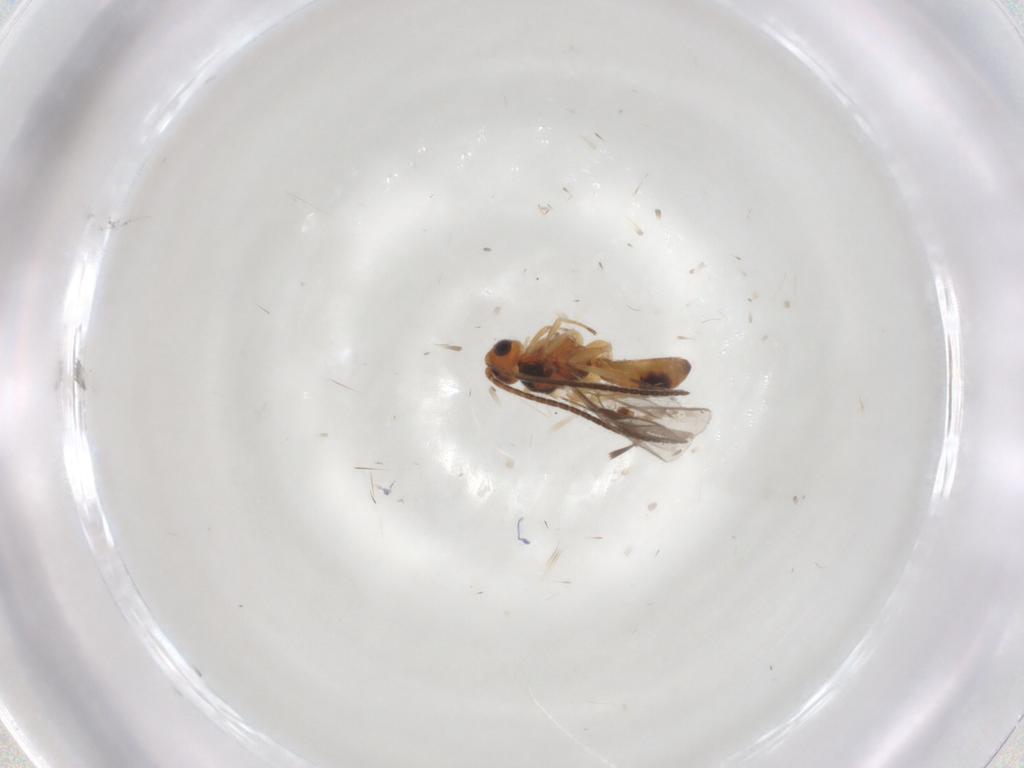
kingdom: Animalia
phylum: Arthropoda
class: Insecta
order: Hymenoptera
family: Braconidae
